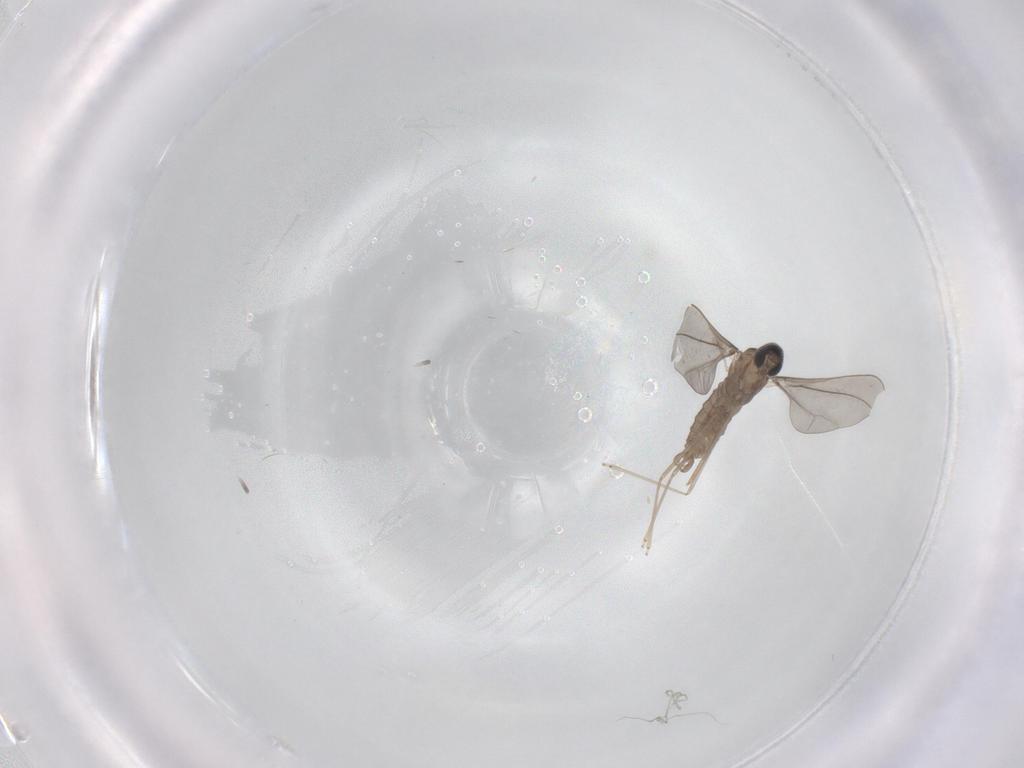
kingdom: Animalia
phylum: Arthropoda
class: Insecta
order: Diptera
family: Cecidomyiidae
